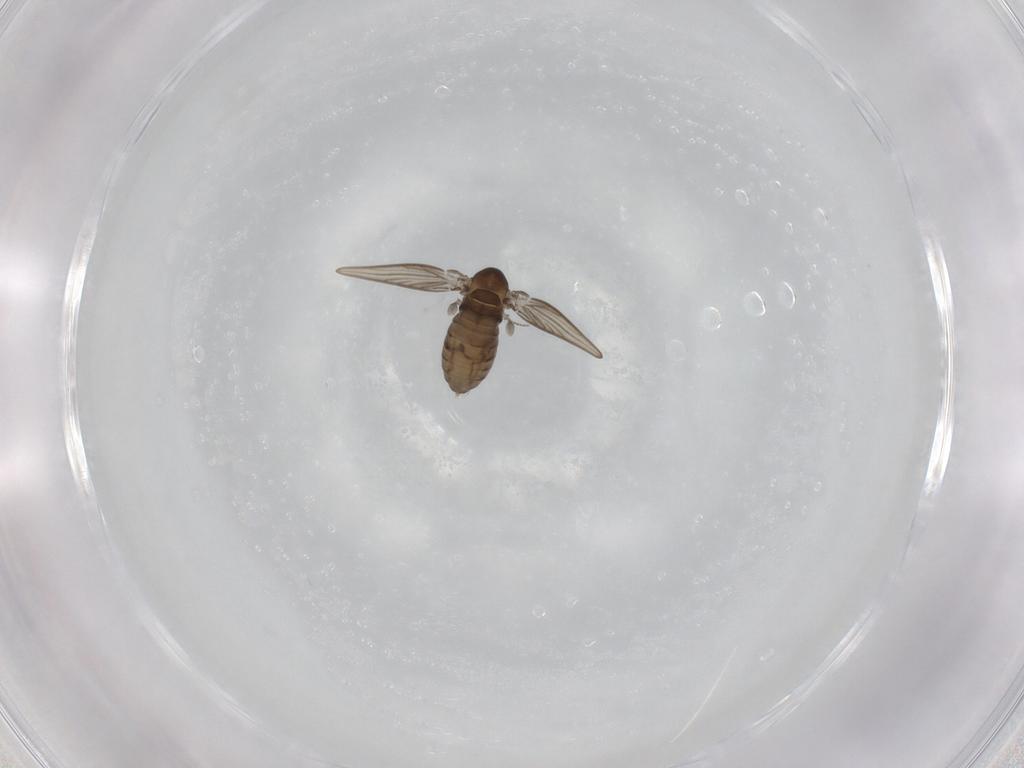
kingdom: Animalia
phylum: Arthropoda
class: Insecta
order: Diptera
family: Psychodidae
